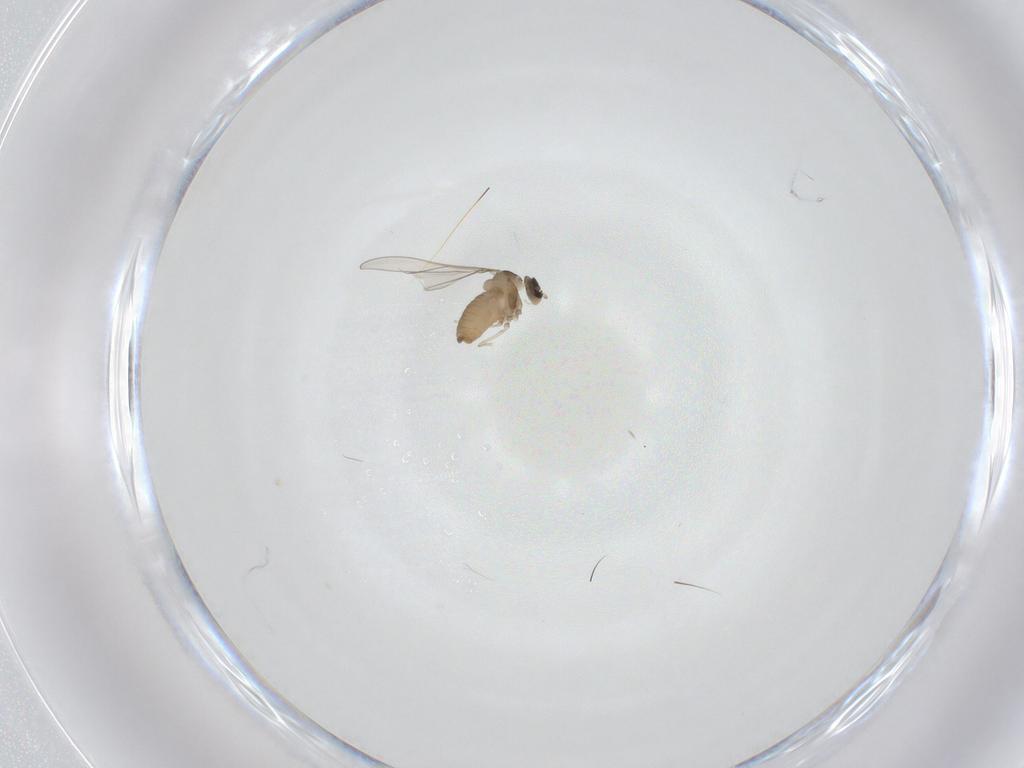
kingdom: Animalia
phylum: Arthropoda
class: Insecta
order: Diptera
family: Cecidomyiidae
